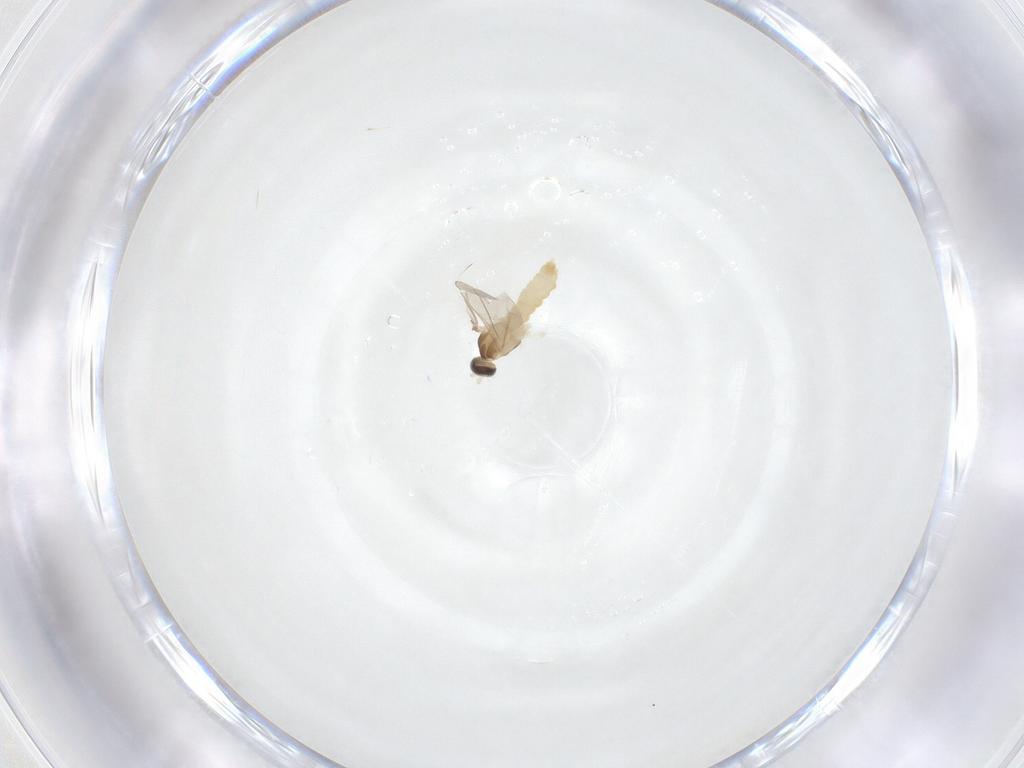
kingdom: Animalia
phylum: Arthropoda
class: Insecta
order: Diptera
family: Cecidomyiidae
